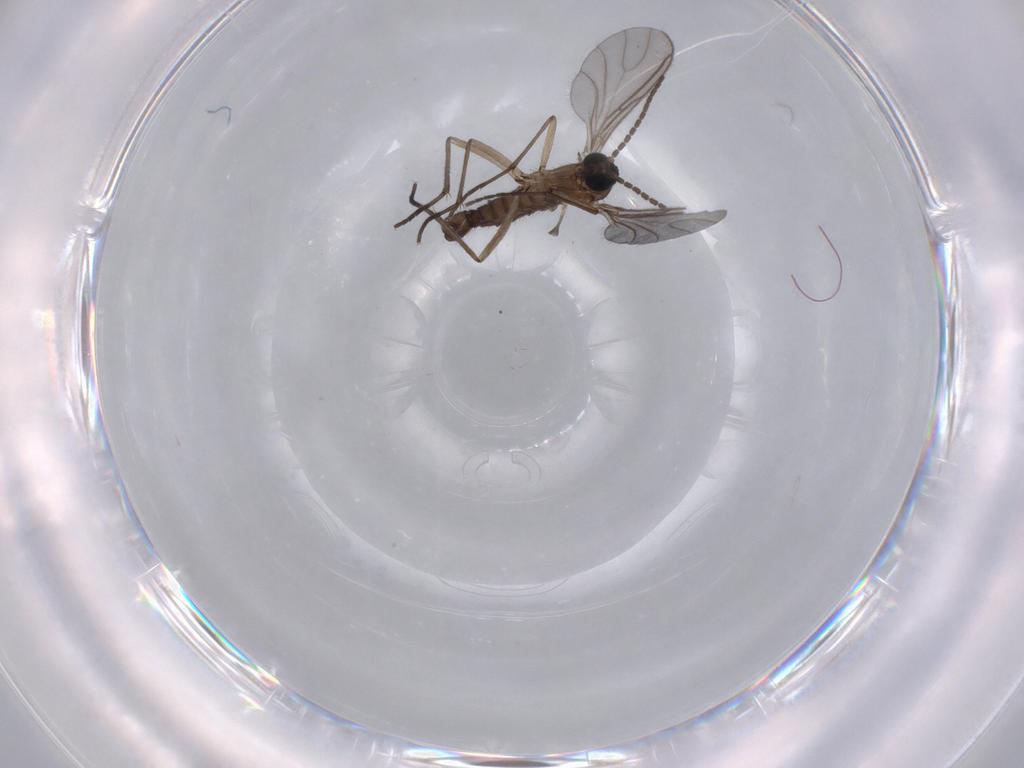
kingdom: Animalia
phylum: Arthropoda
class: Insecta
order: Diptera
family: Sciaridae
